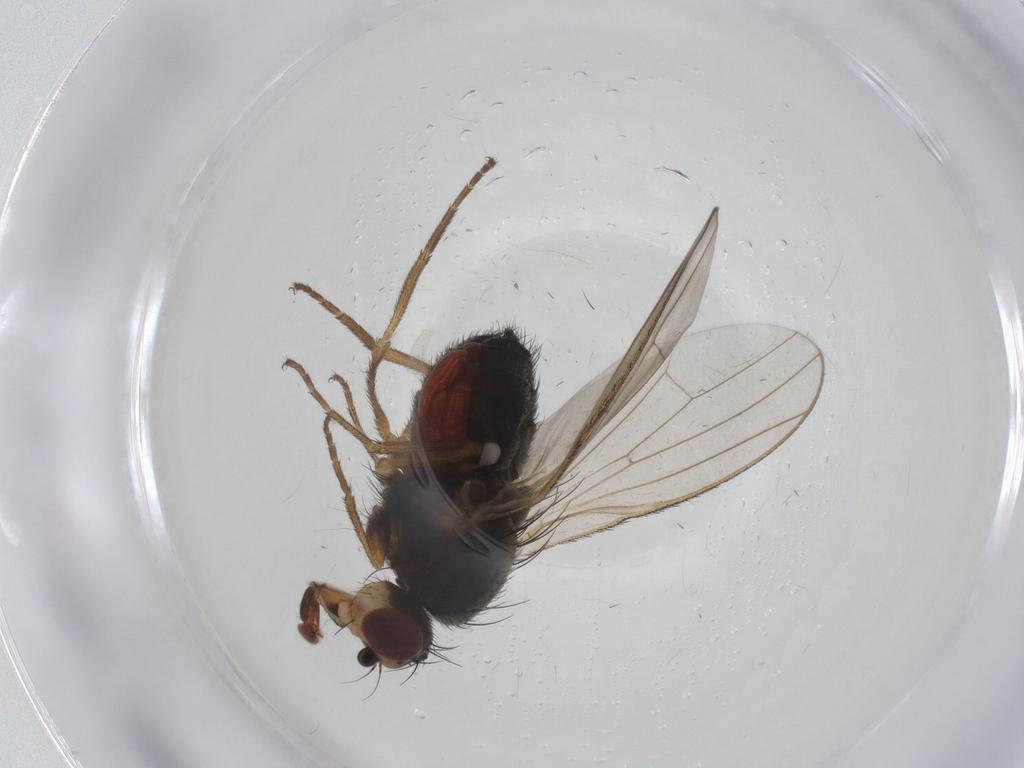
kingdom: Animalia
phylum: Arthropoda
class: Insecta
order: Diptera
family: Heleomyzidae
